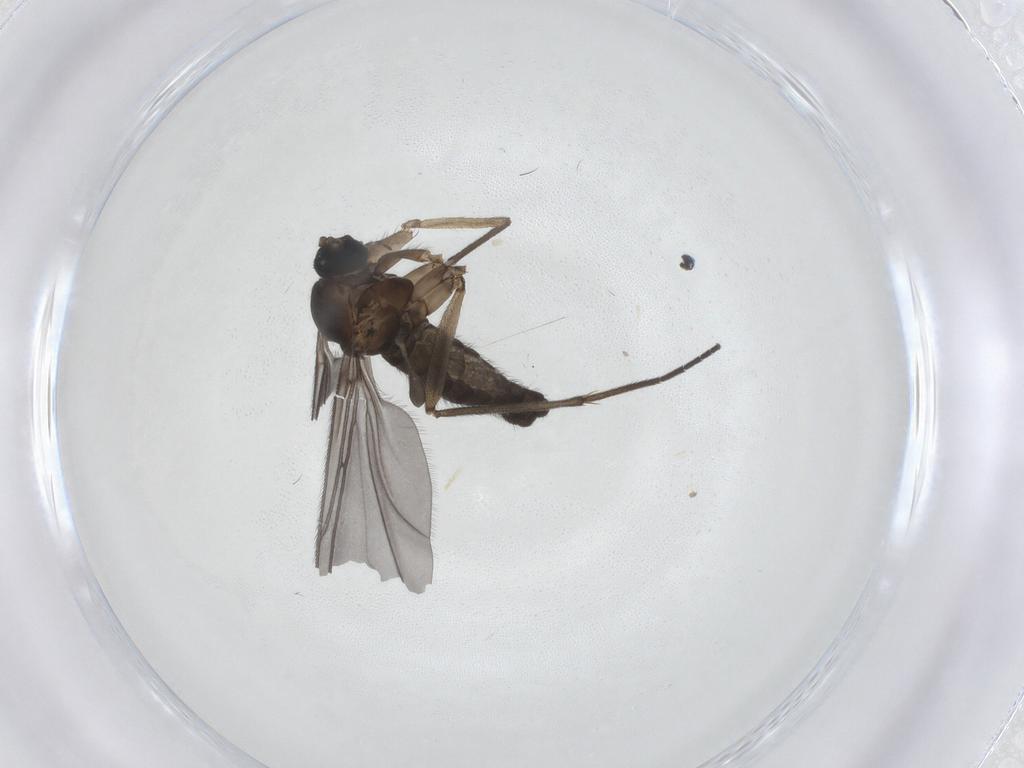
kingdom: Animalia
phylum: Arthropoda
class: Insecta
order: Diptera
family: Sciaridae
